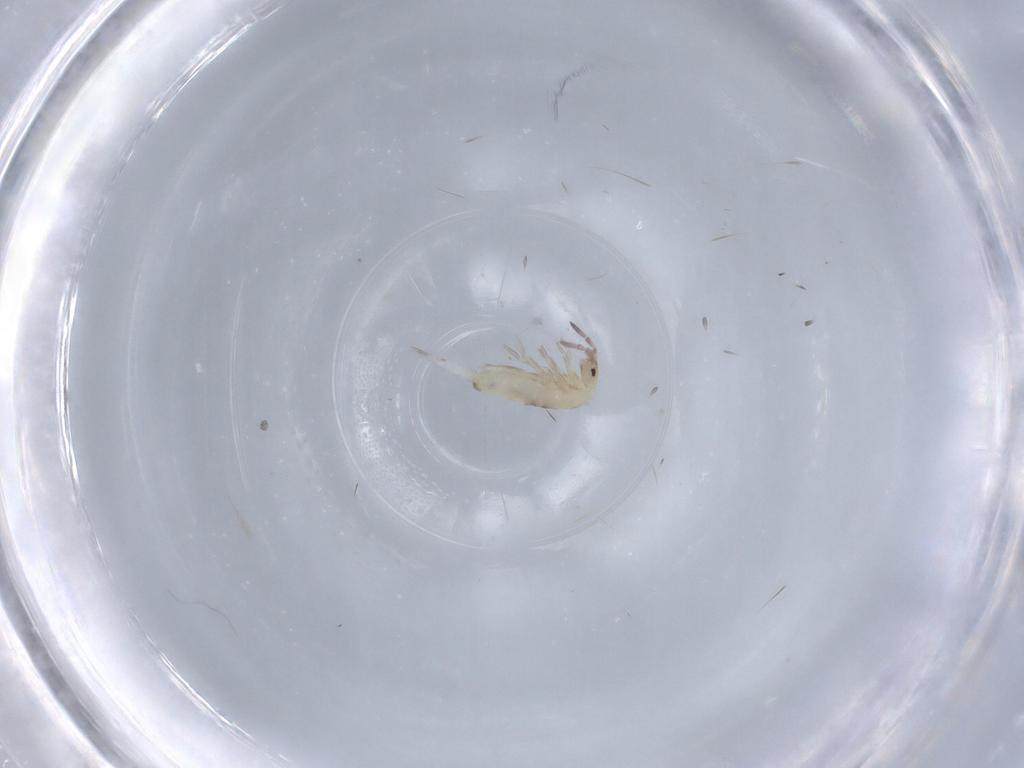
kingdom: Animalia
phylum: Arthropoda
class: Collembola
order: Entomobryomorpha
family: Entomobryidae
